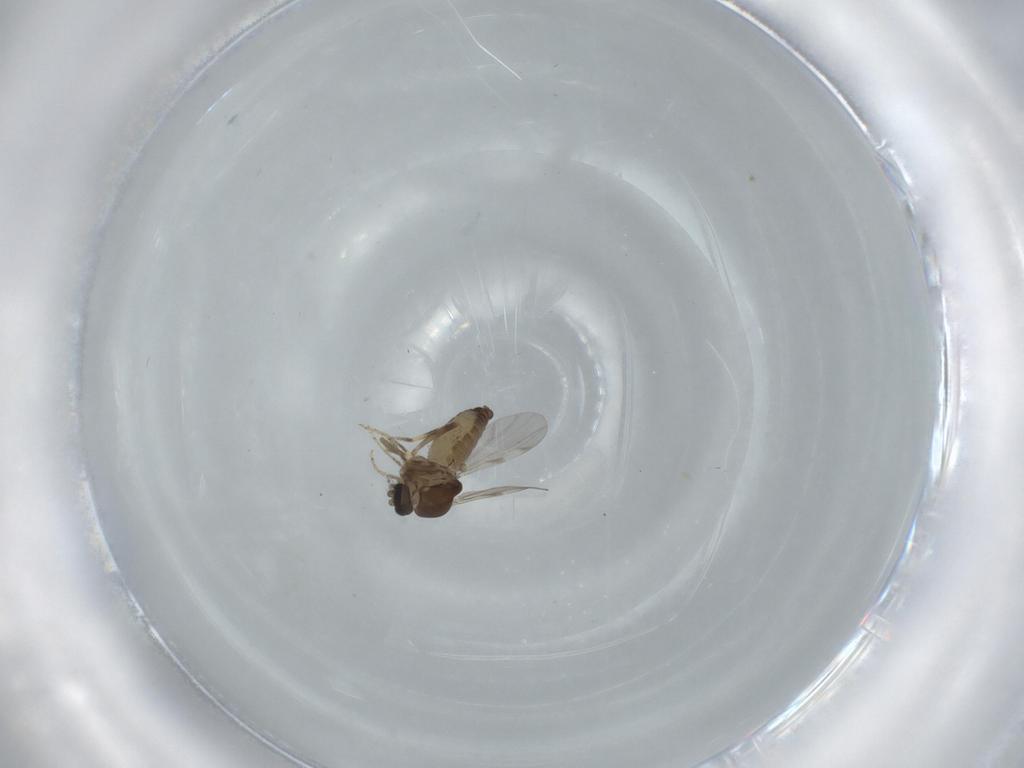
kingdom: Animalia
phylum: Arthropoda
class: Insecta
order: Diptera
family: Ceratopogonidae
